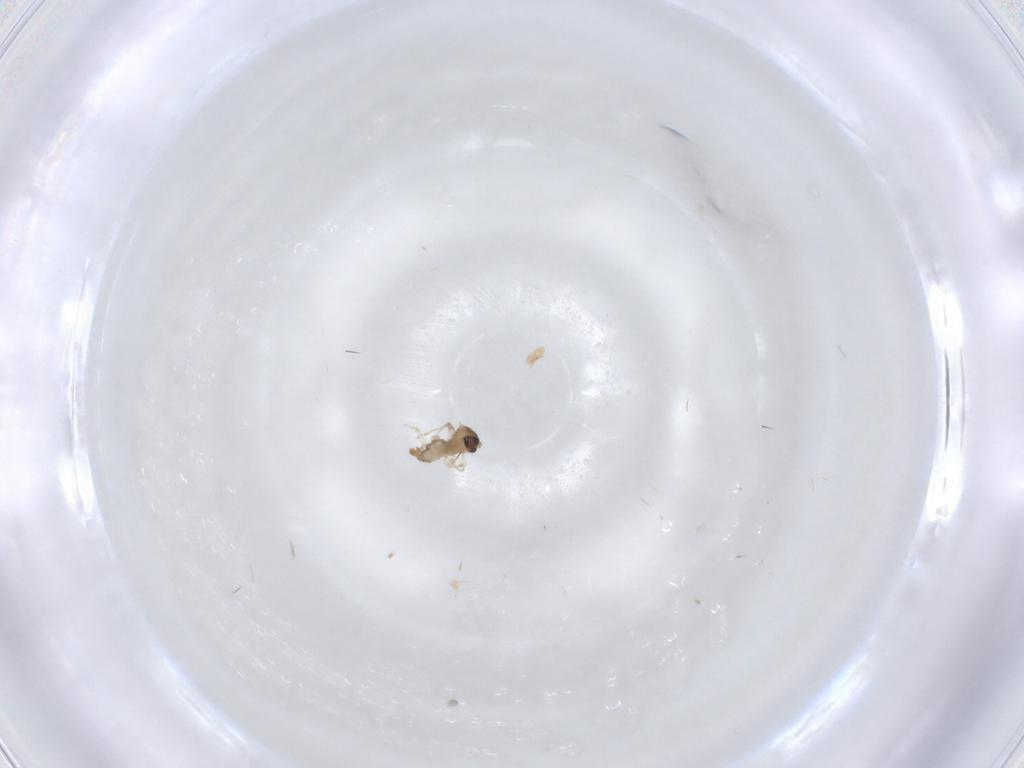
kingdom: Animalia
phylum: Arthropoda
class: Insecta
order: Diptera
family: Cecidomyiidae
